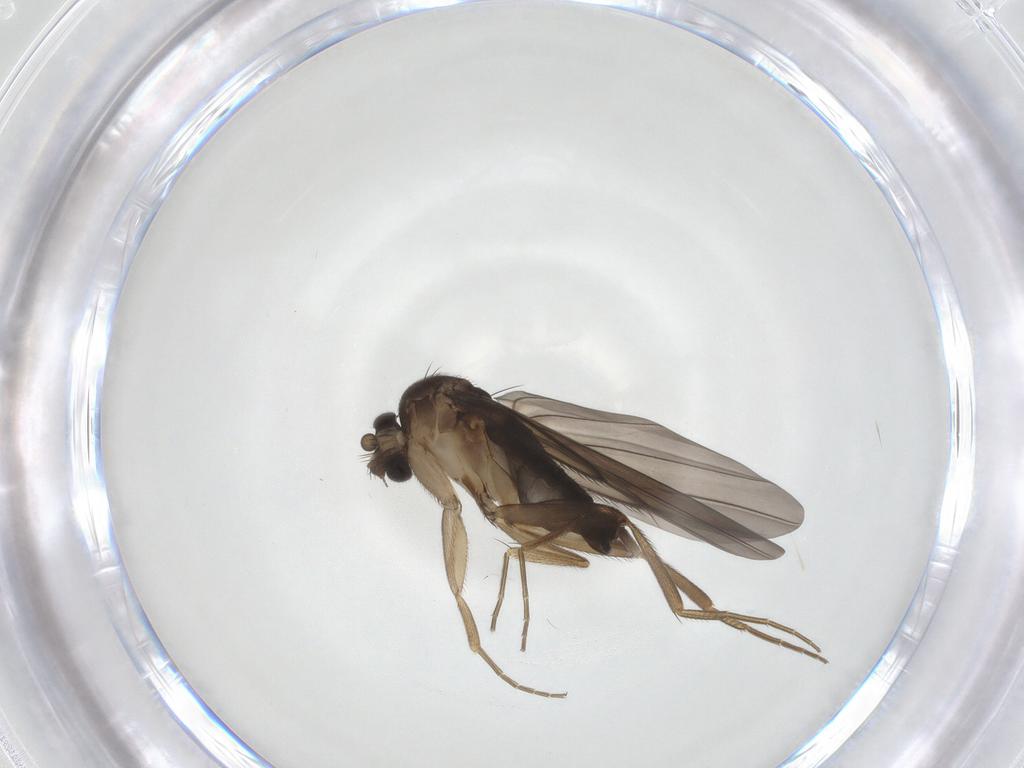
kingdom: Animalia
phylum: Arthropoda
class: Insecta
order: Diptera
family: Phoridae
